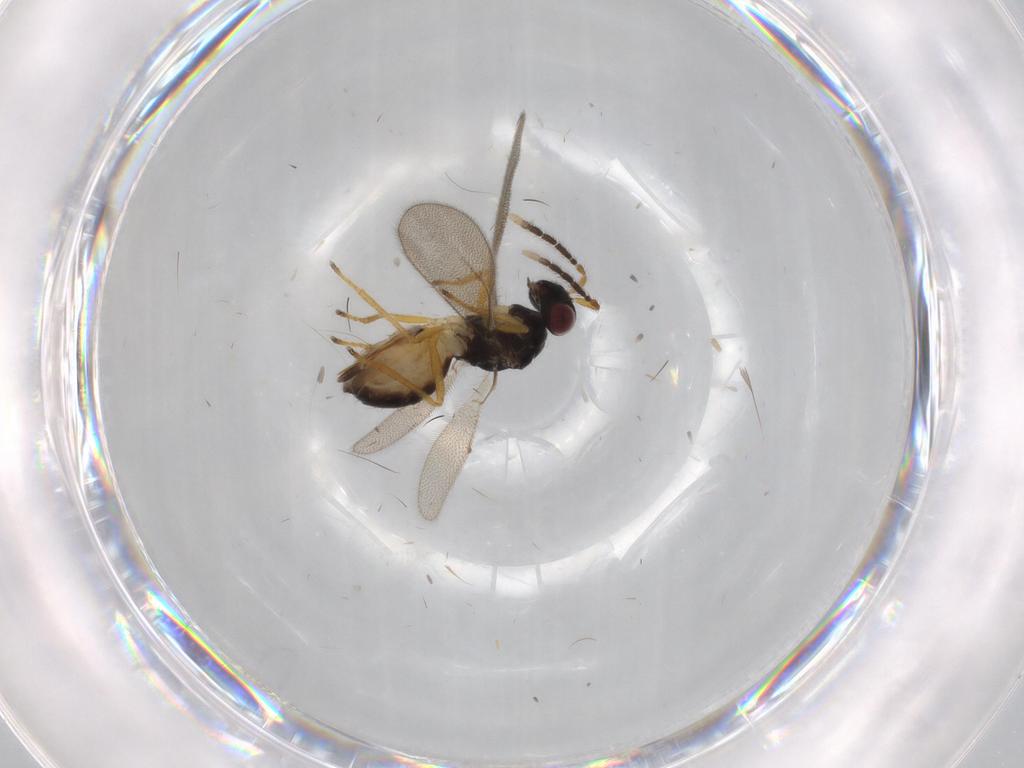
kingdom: Animalia
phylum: Arthropoda
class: Insecta
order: Hymenoptera
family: Eulophidae
